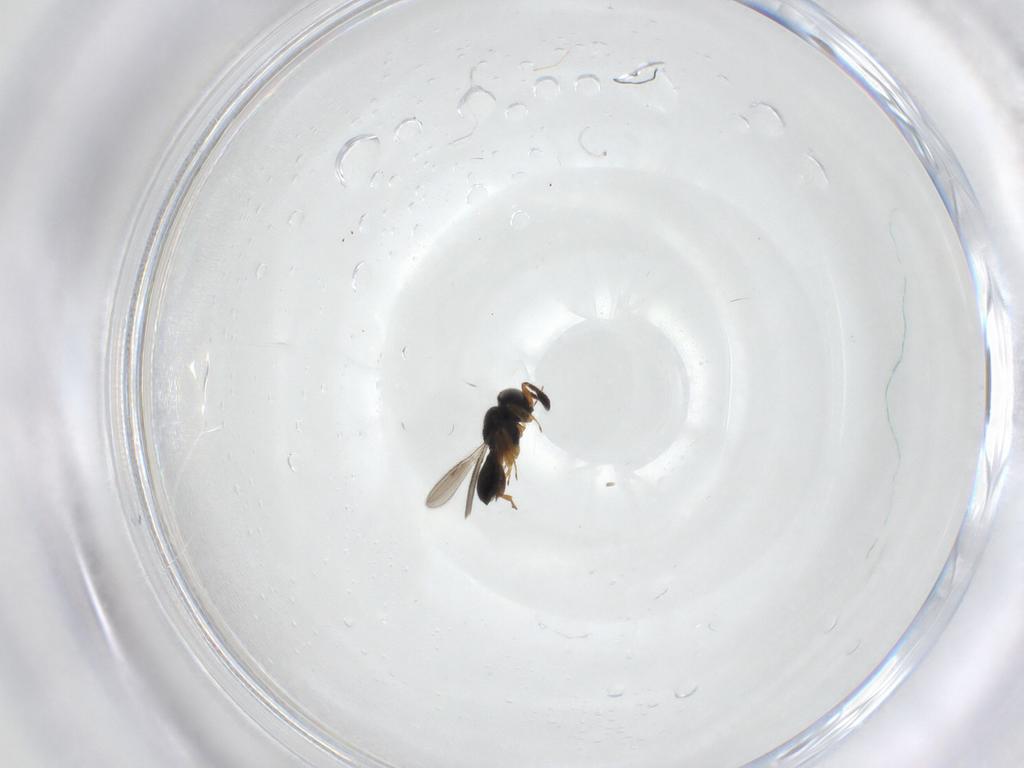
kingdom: Animalia
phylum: Arthropoda
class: Insecta
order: Hymenoptera
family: Scelionidae
